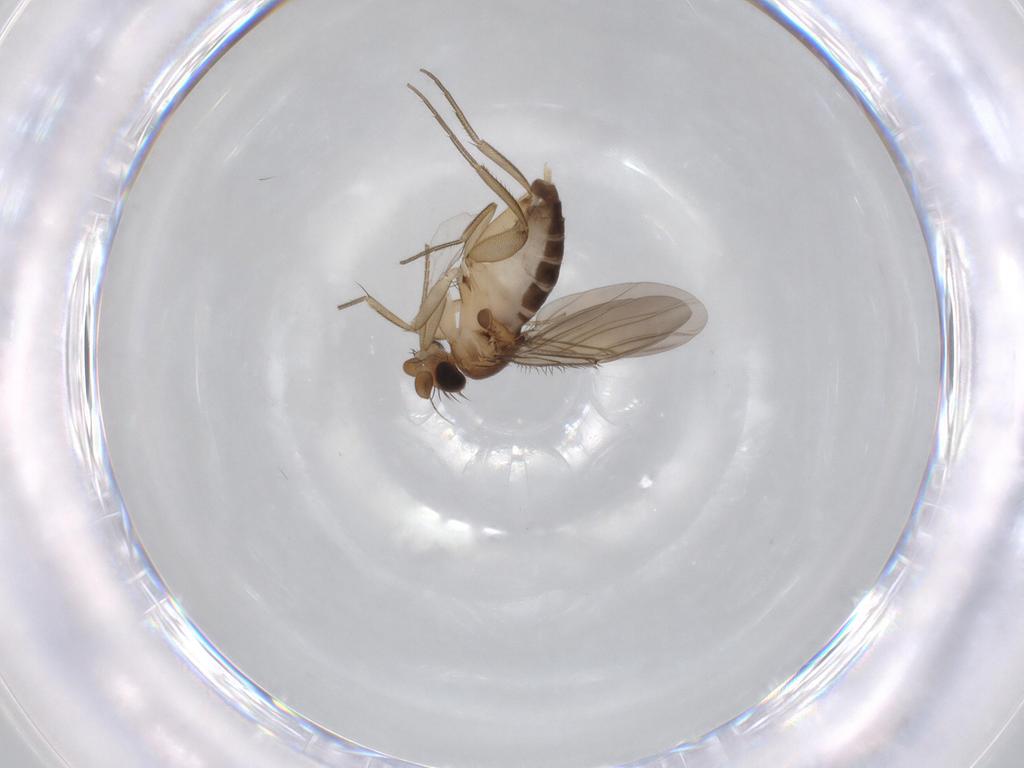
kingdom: Animalia
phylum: Arthropoda
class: Insecta
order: Diptera
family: Phoridae
